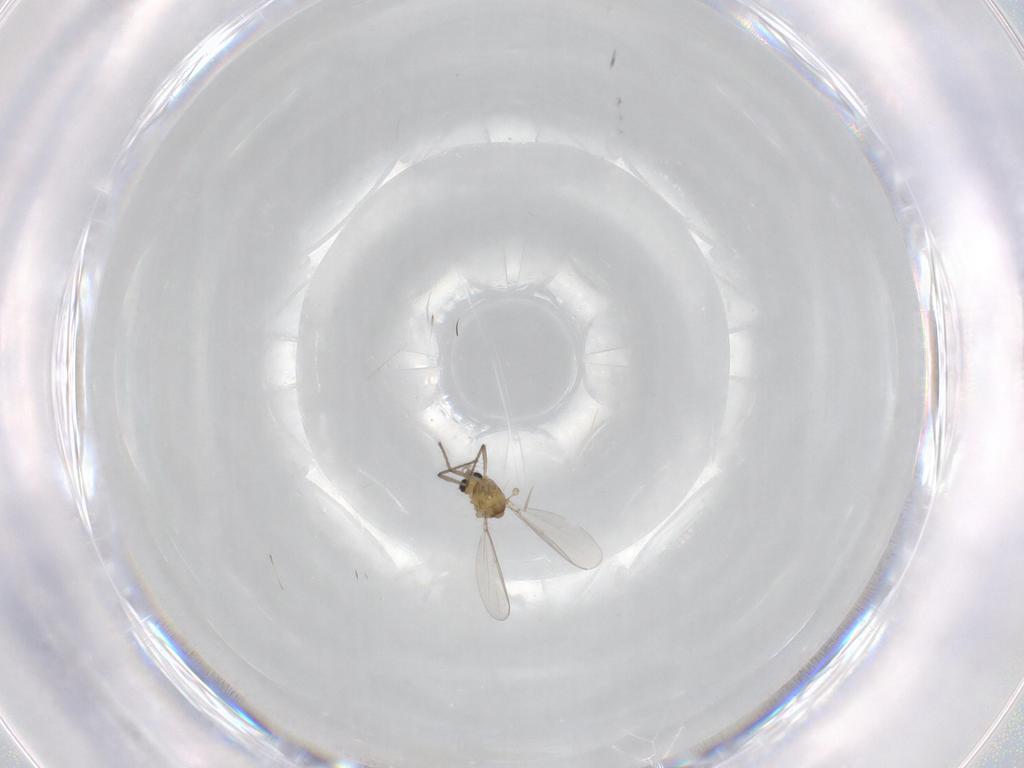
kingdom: Animalia
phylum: Arthropoda
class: Insecta
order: Diptera
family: Chironomidae
